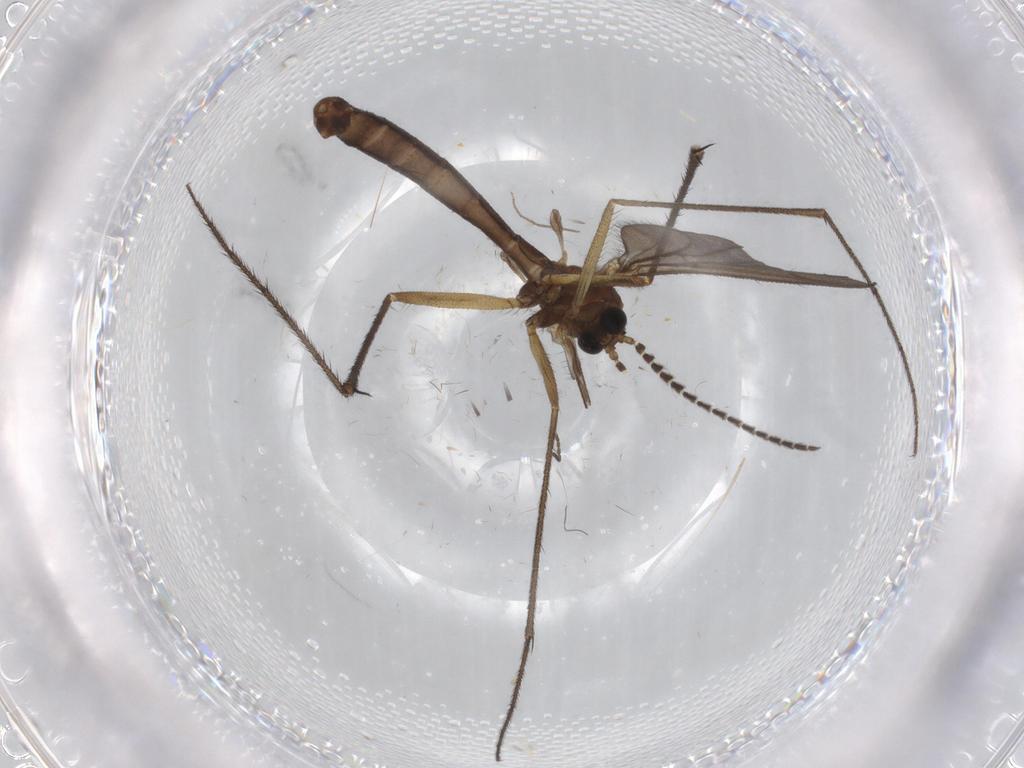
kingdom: Animalia
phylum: Arthropoda
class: Insecta
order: Diptera
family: Ditomyiidae
